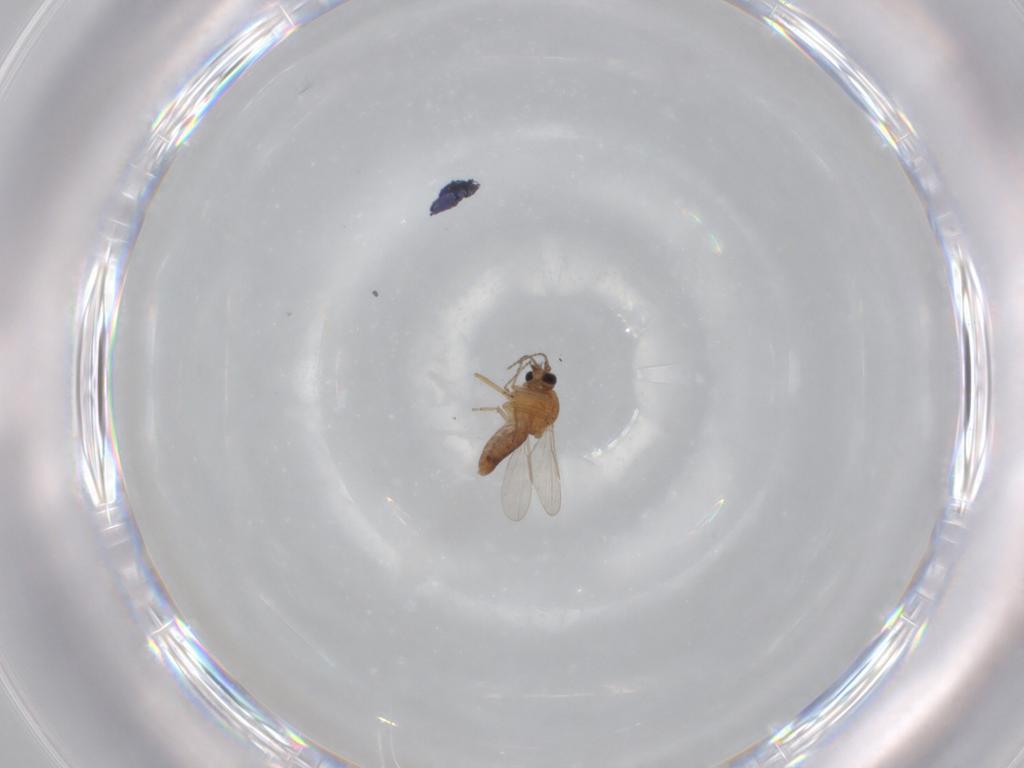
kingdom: Animalia
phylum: Arthropoda
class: Insecta
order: Diptera
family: Ceratopogonidae
